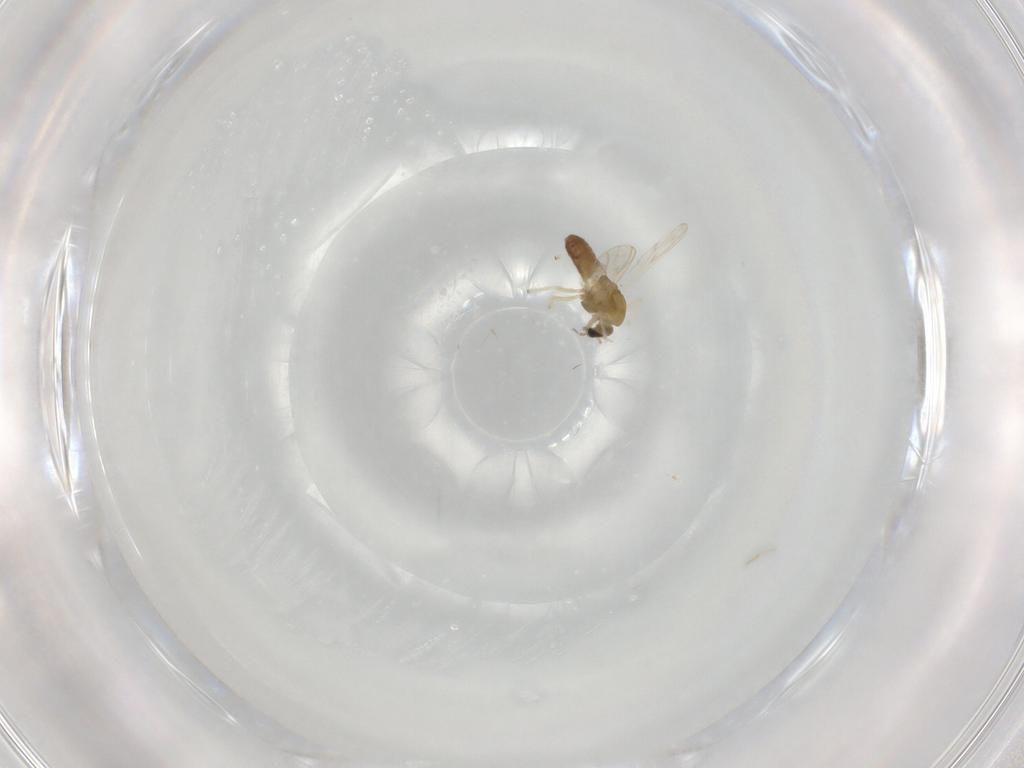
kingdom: Animalia
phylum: Arthropoda
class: Insecta
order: Diptera
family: Chironomidae
